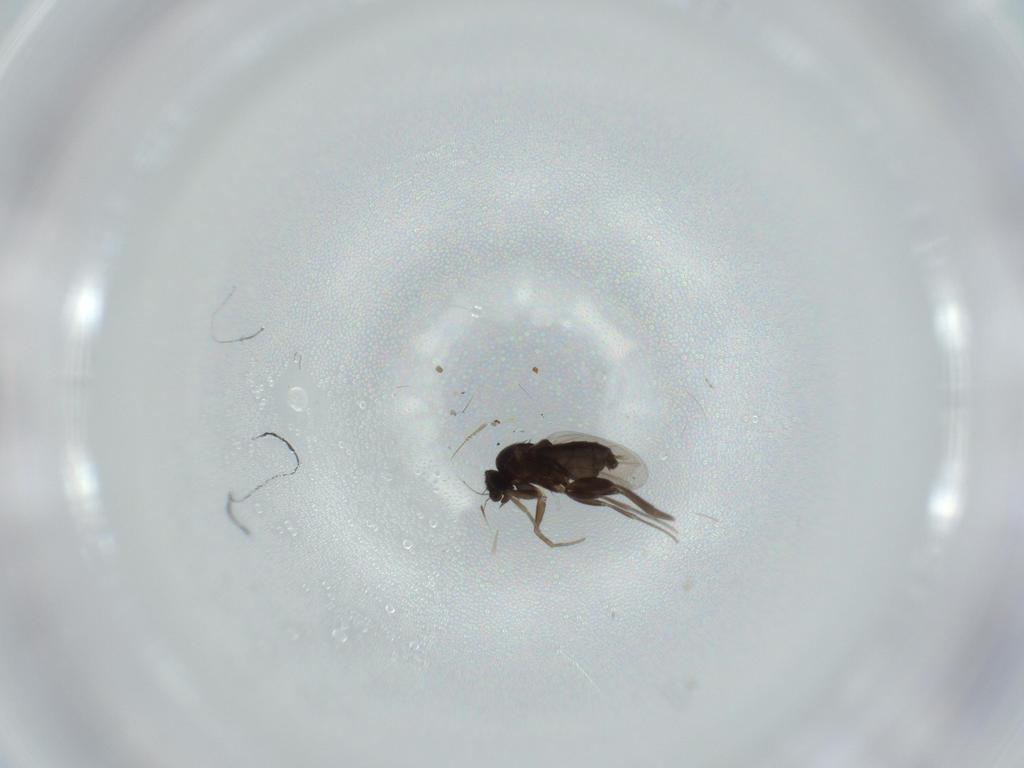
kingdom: Animalia
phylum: Arthropoda
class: Insecta
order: Diptera
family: Cecidomyiidae
